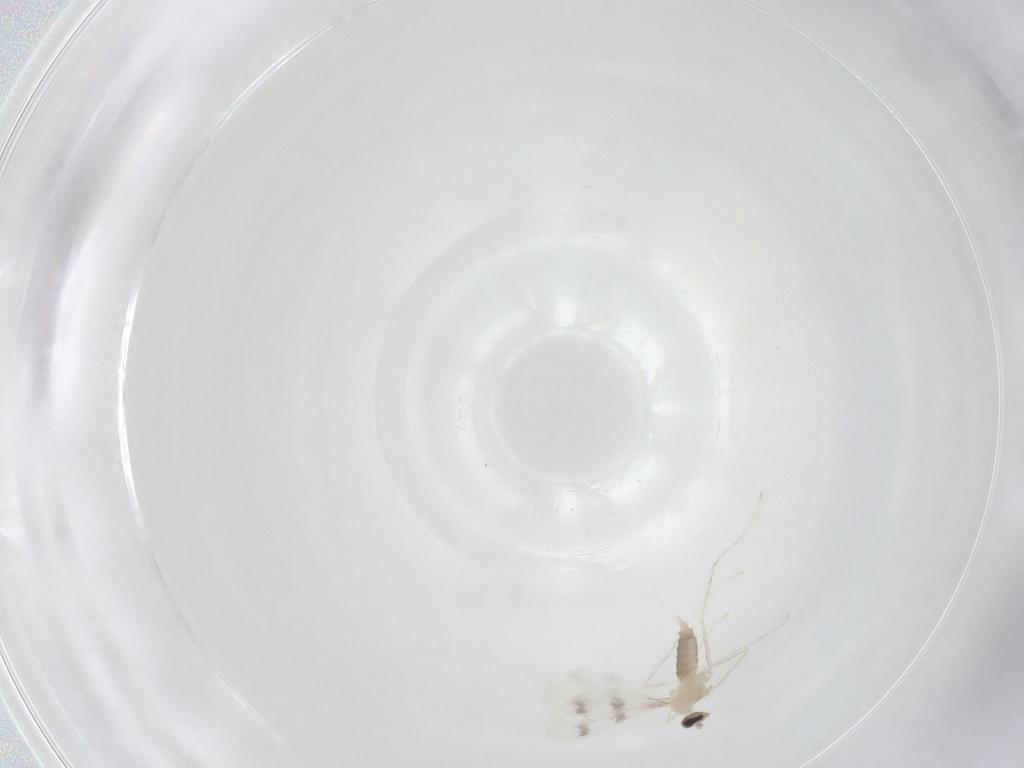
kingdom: Animalia
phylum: Arthropoda
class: Insecta
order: Diptera
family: Cecidomyiidae
